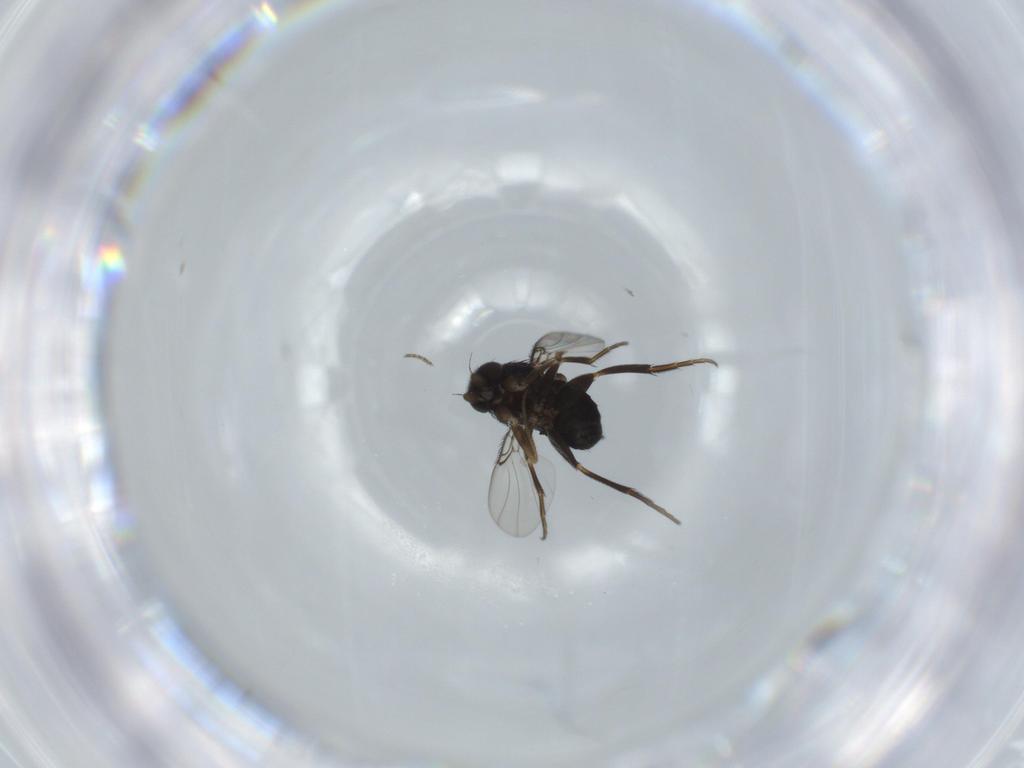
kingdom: Animalia
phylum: Arthropoda
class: Insecta
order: Diptera
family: Phoridae
